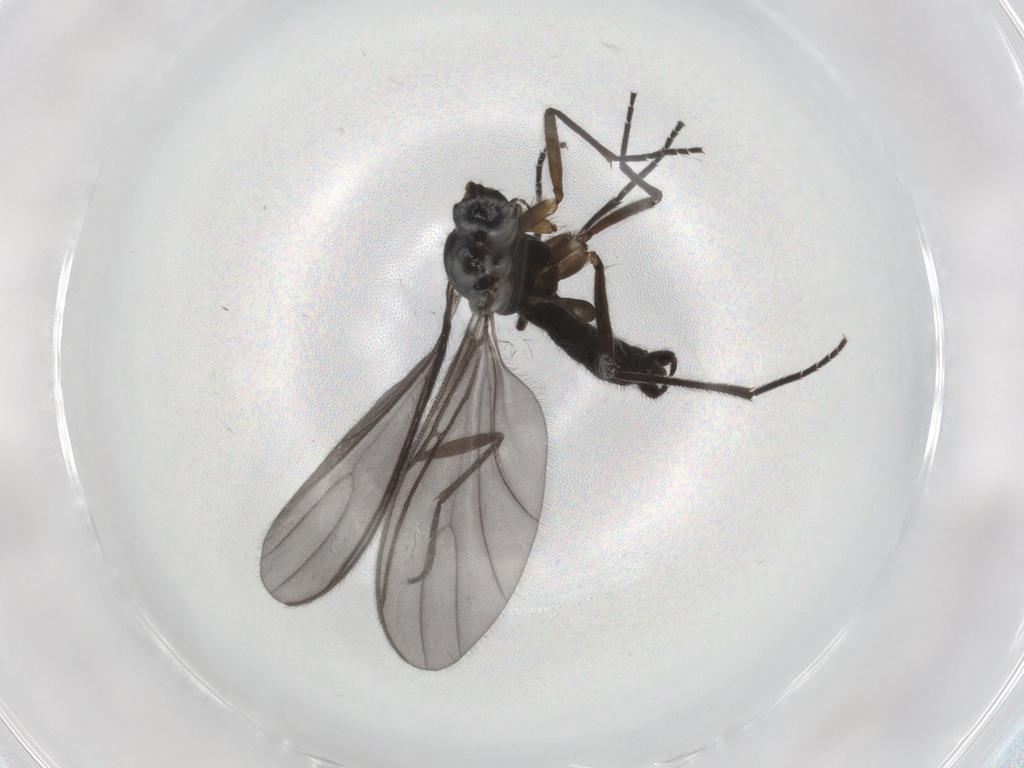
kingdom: Animalia
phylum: Arthropoda
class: Insecta
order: Diptera
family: Sciaridae
